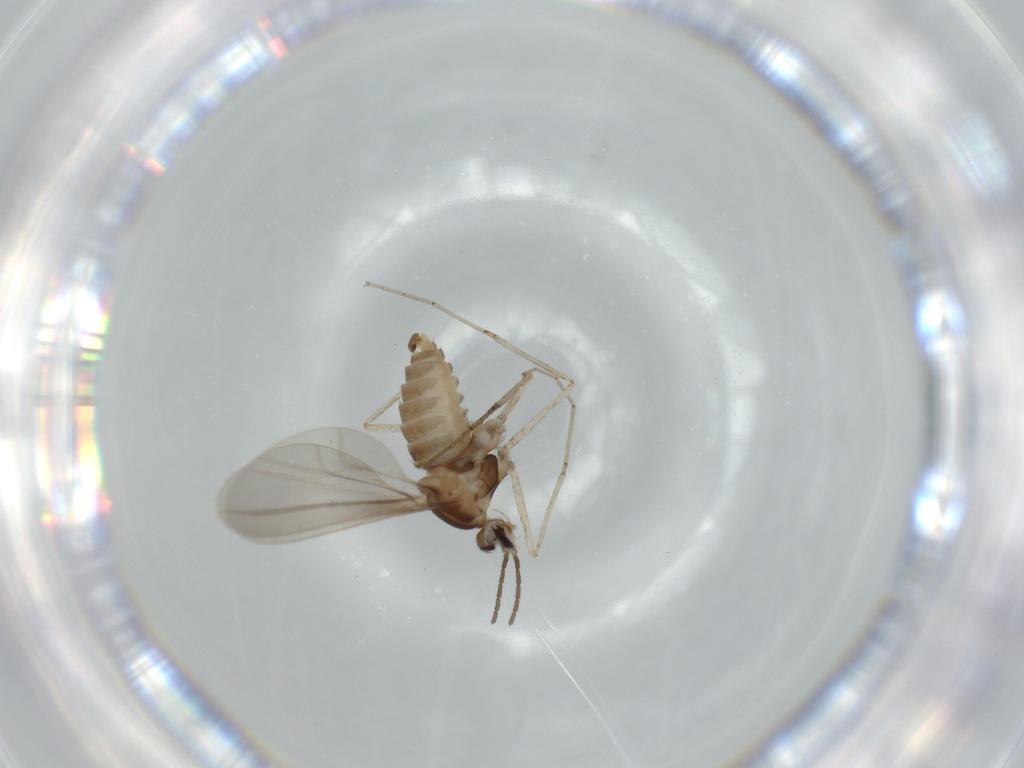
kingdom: Animalia
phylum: Arthropoda
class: Insecta
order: Diptera
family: Cecidomyiidae
